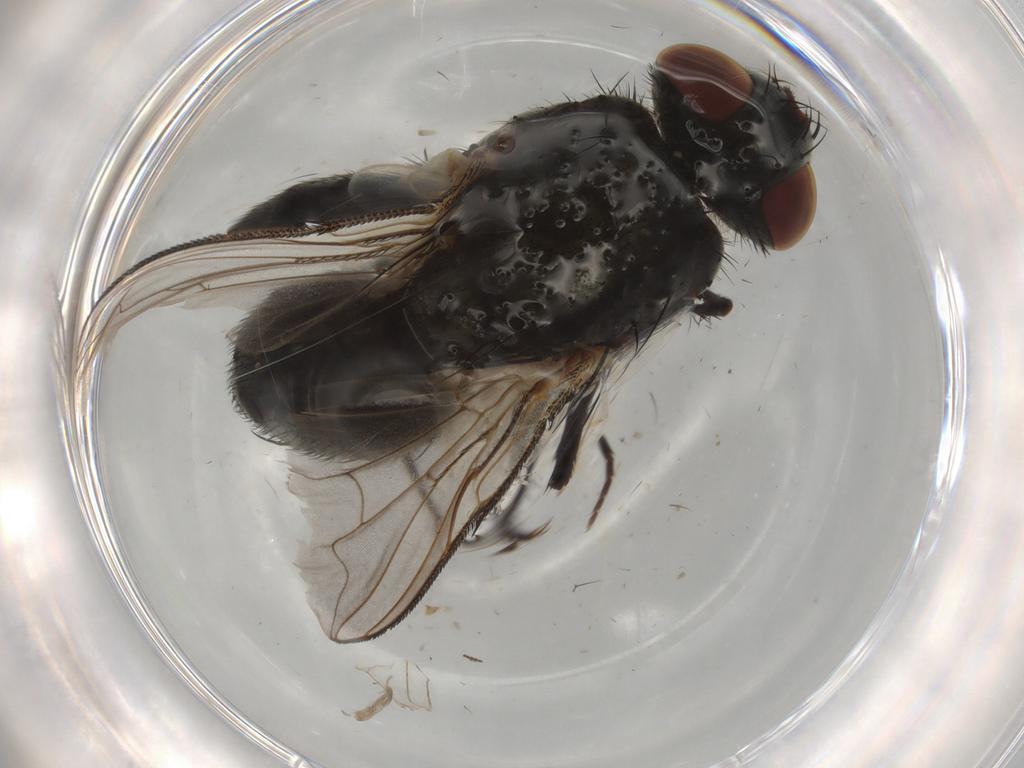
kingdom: Animalia
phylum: Arthropoda
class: Insecta
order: Diptera
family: Sarcophagidae
